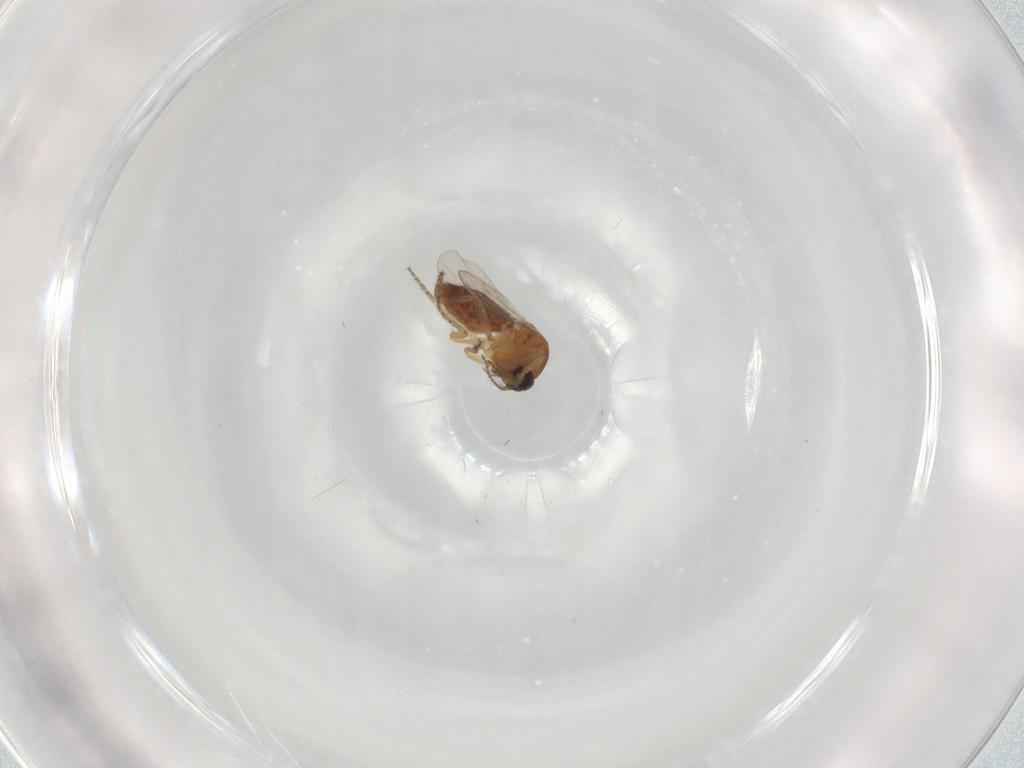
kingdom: Animalia
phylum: Arthropoda
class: Insecta
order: Diptera
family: Ceratopogonidae
